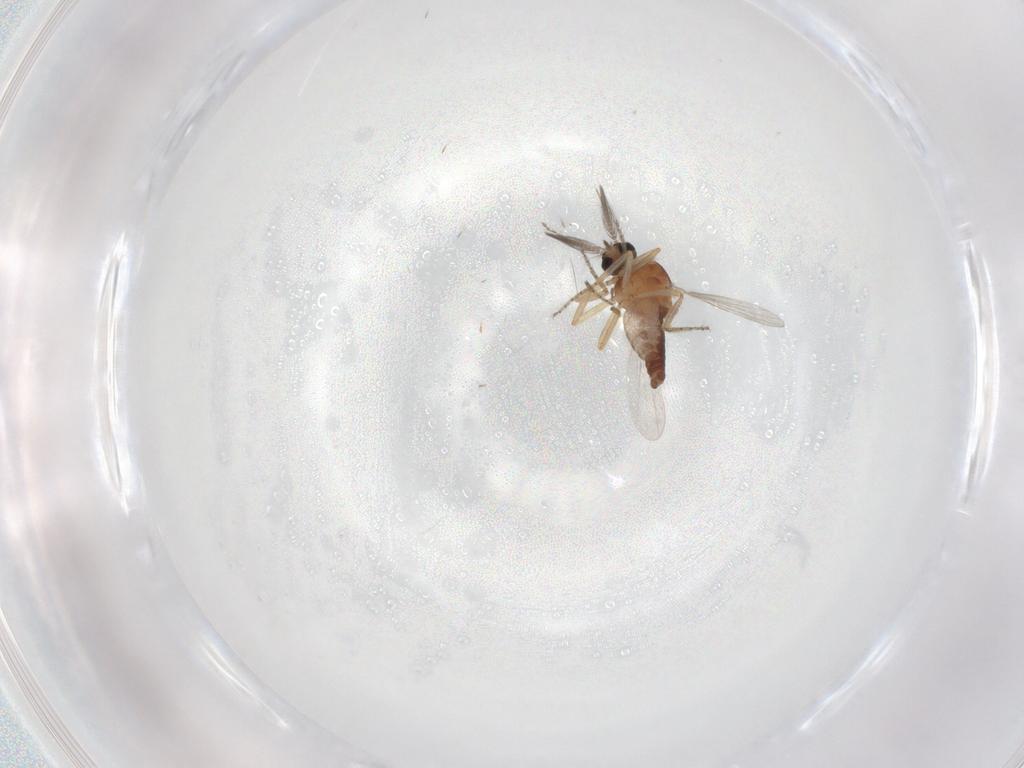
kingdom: Animalia
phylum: Arthropoda
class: Insecta
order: Diptera
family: Ceratopogonidae
